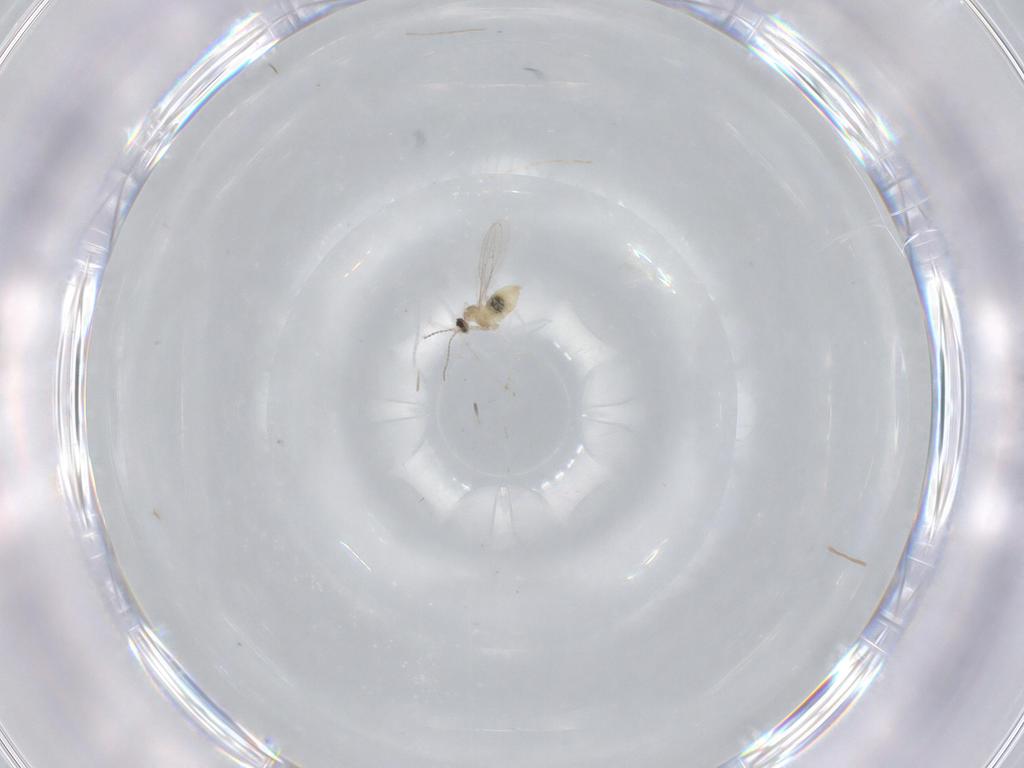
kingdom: Animalia
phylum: Arthropoda
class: Insecta
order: Diptera
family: Cecidomyiidae
